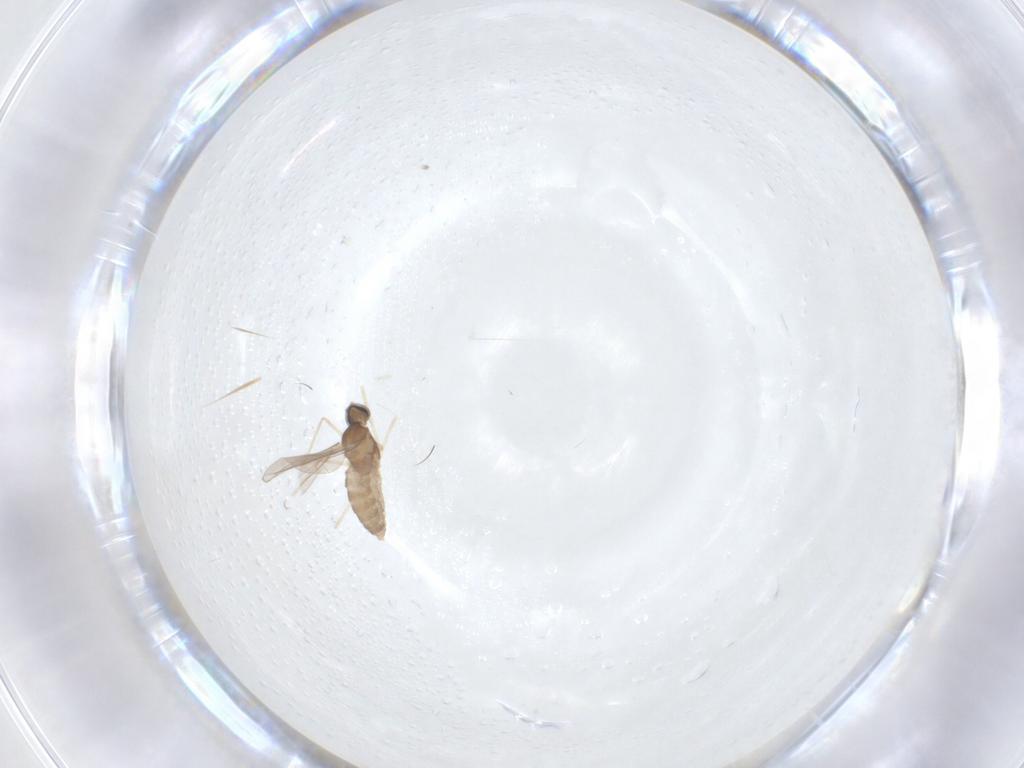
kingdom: Animalia
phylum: Arthropoda
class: Insecta
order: Diptera
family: Cecidomyiidae
